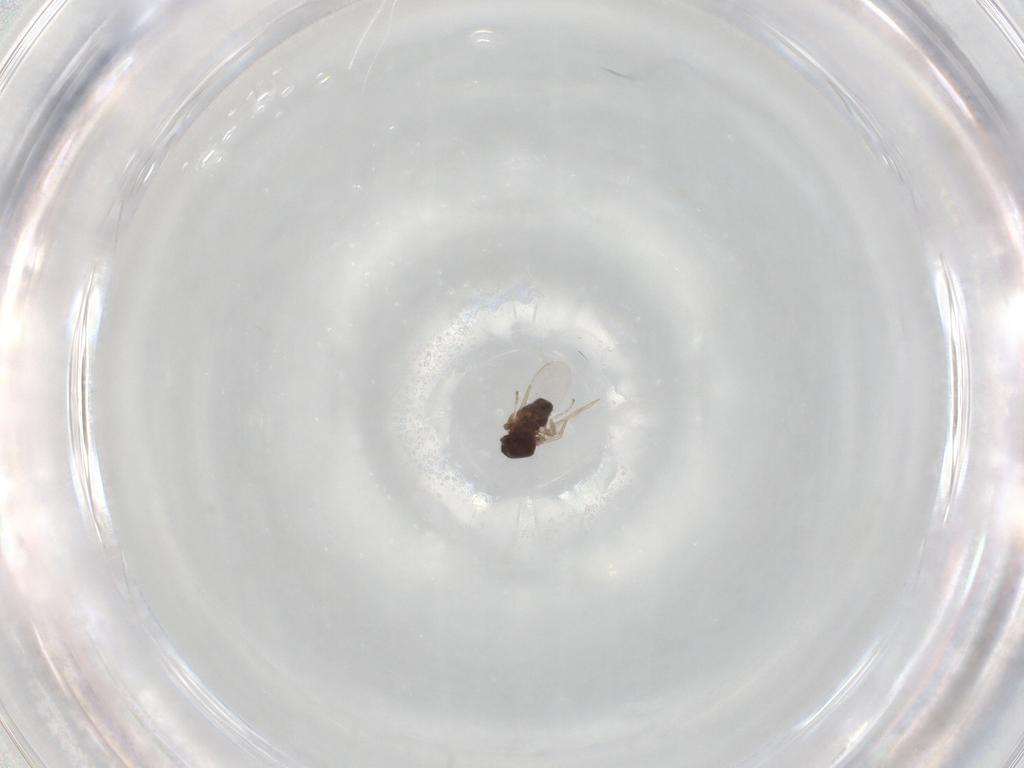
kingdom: Animalia
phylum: Arthropoda
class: Insecta
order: Diptera
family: Ceratopogonidae
